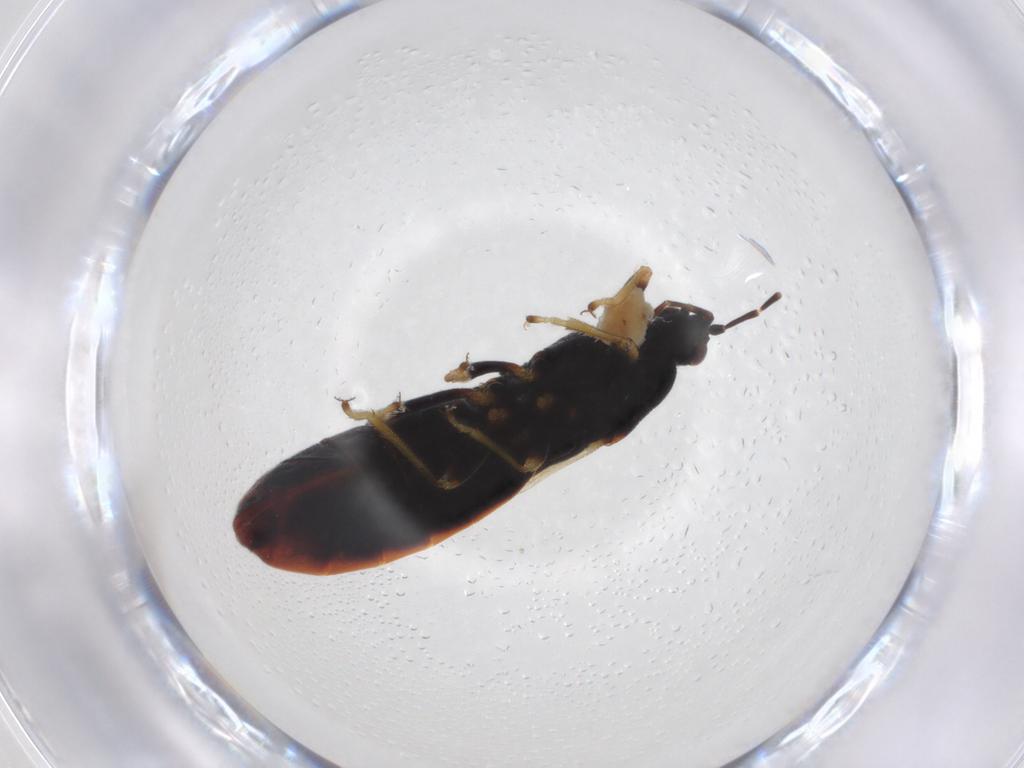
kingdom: Animalia
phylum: Arthropoda
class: Insecta
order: Hemiptera
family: Blissidae
